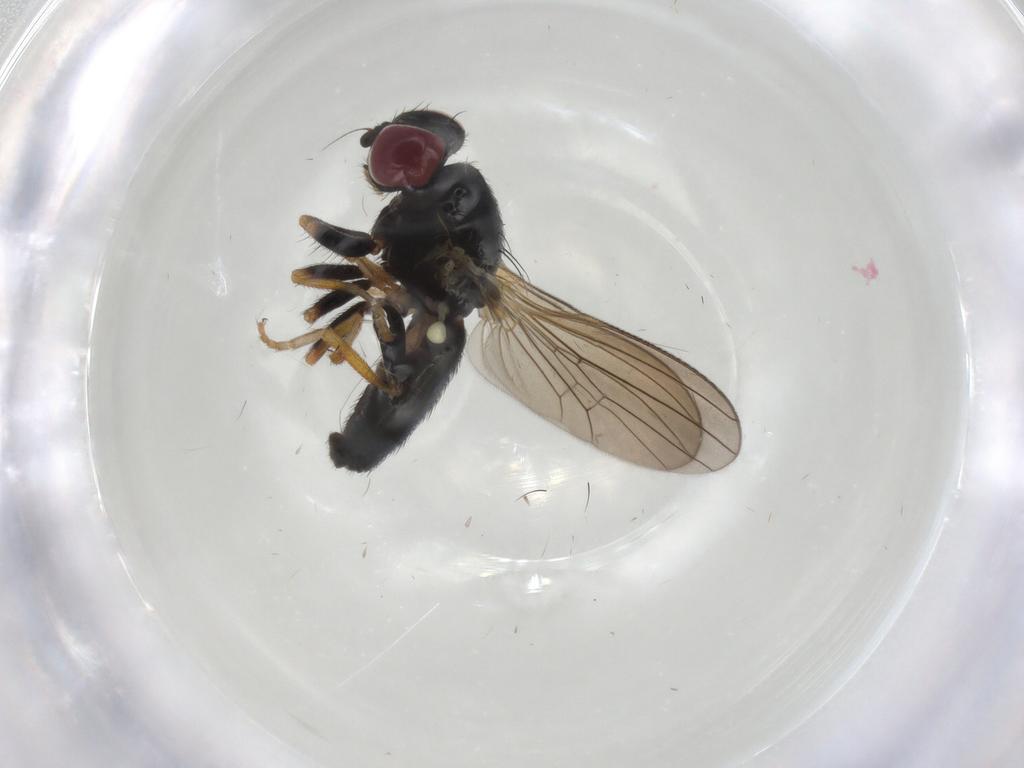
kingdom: Animalia
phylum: Arthropoda
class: Insecta
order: Diptera
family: Chamaemyiidae
